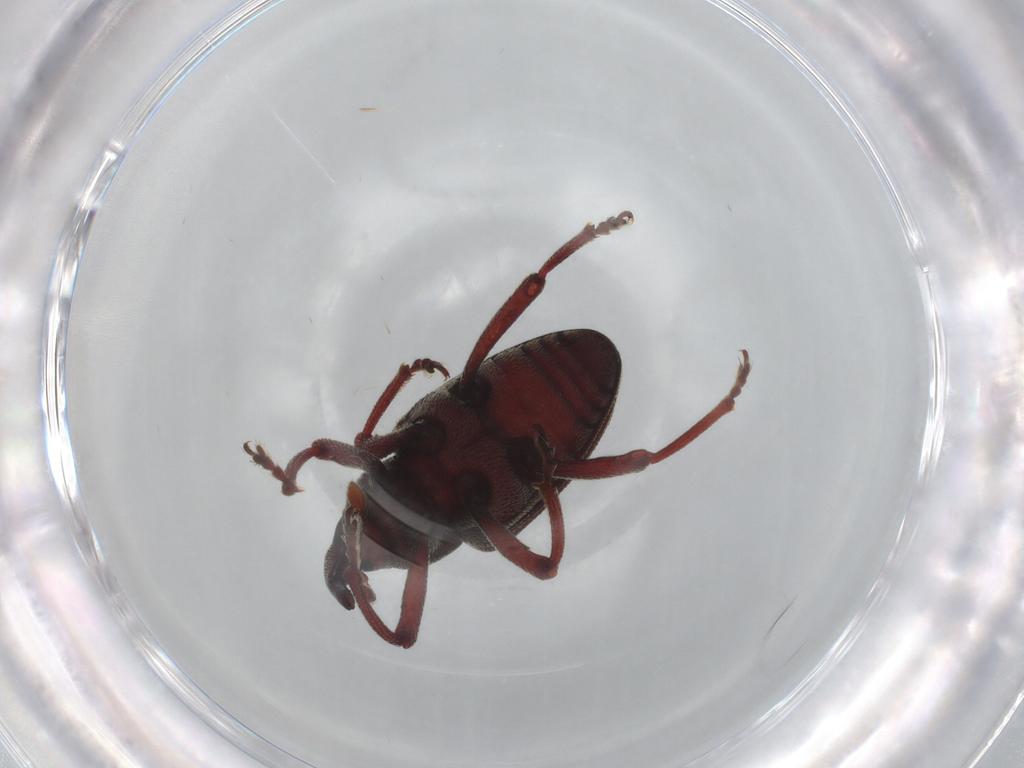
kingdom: Animalia
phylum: Arthropoda
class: Insecta
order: Coleoptera
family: Curculionidae
